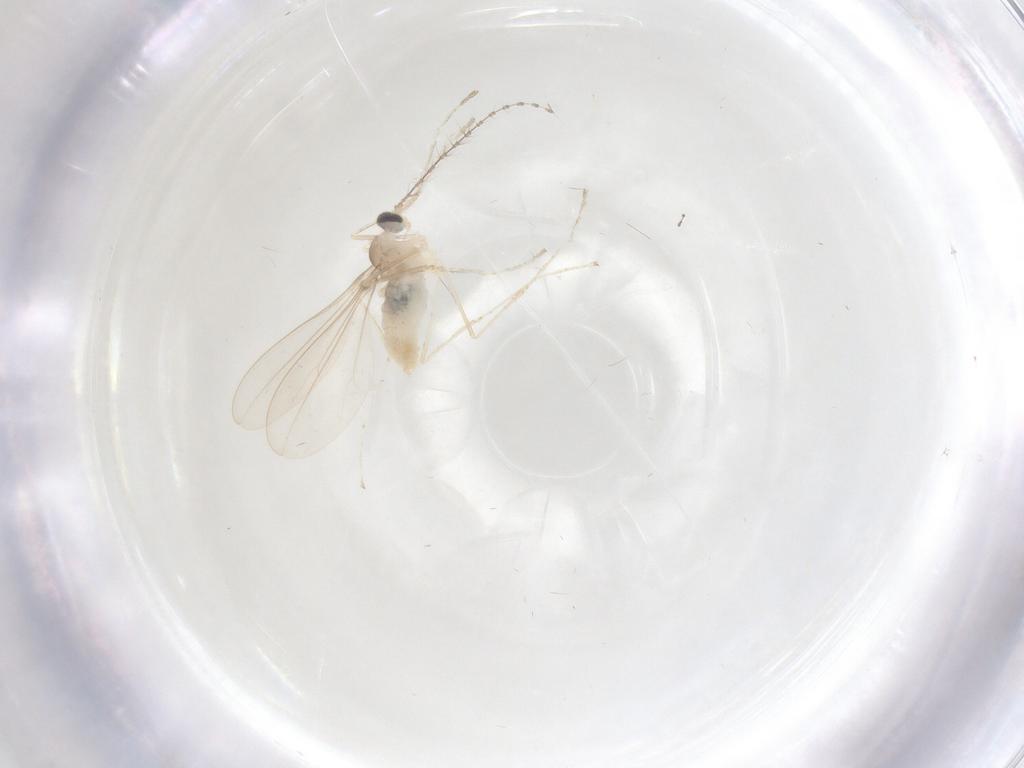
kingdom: Animalia
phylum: Arthropoda
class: Insecta
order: Diptera
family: Cecidomyiidae
